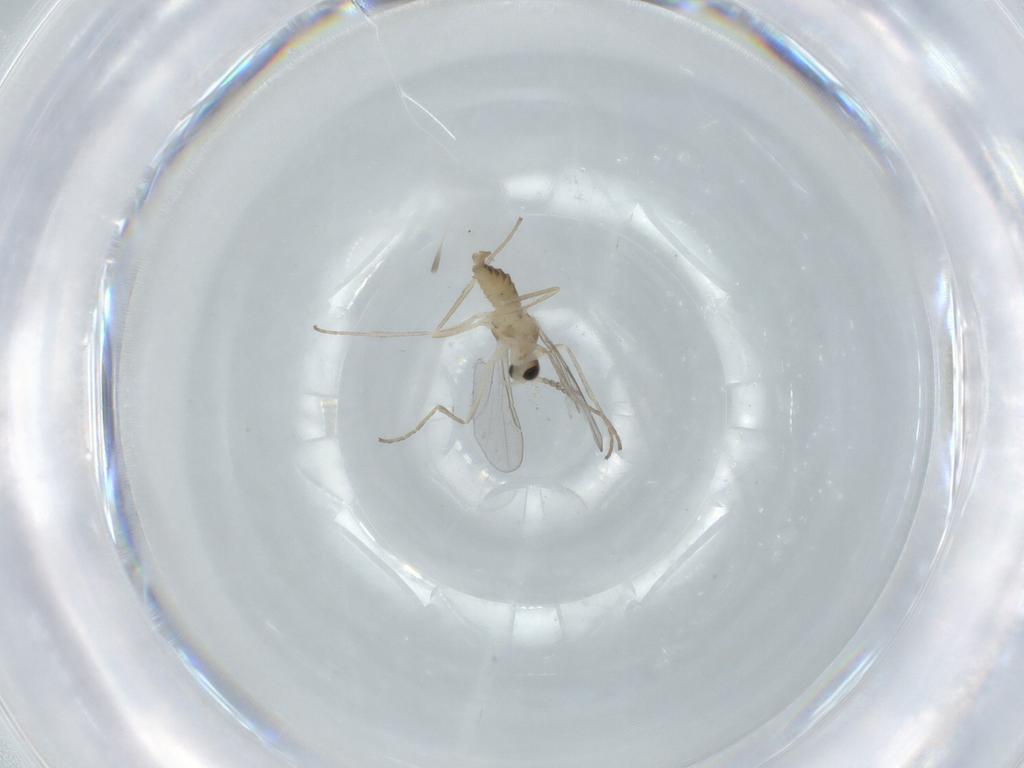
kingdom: Animalia
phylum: Arthropoda
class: Insecta
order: Diptera
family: Cecidomyiidae
